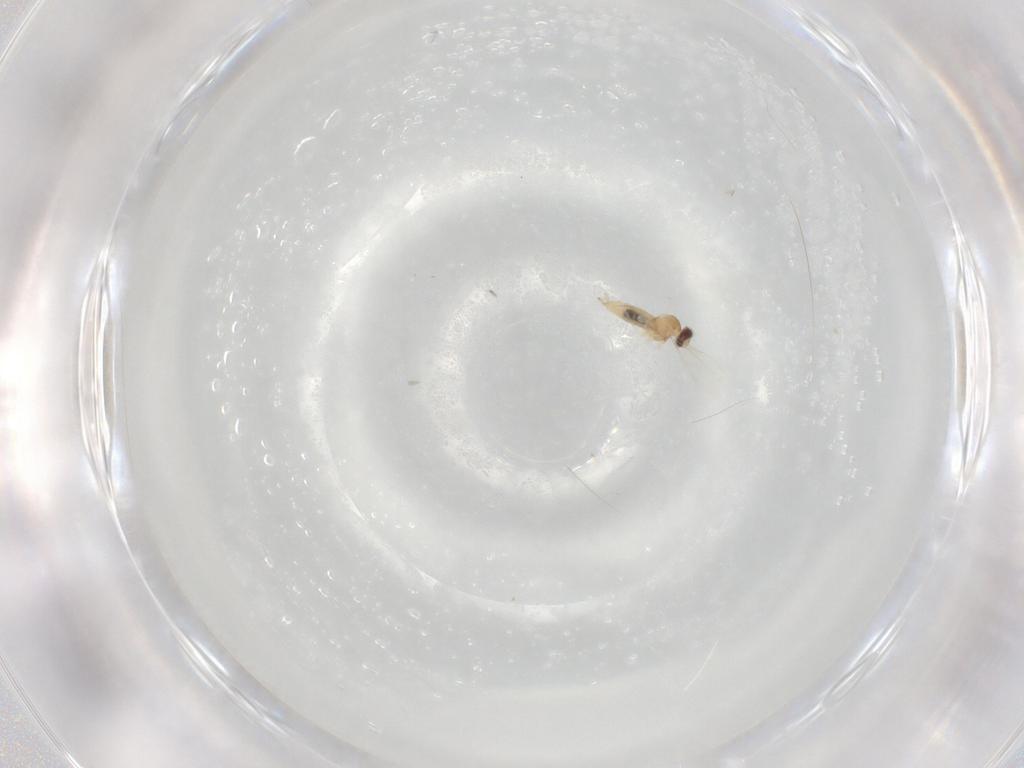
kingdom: Animalia
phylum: Arthropoda
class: Insecta
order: Diptera
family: Cecidomyiidae
